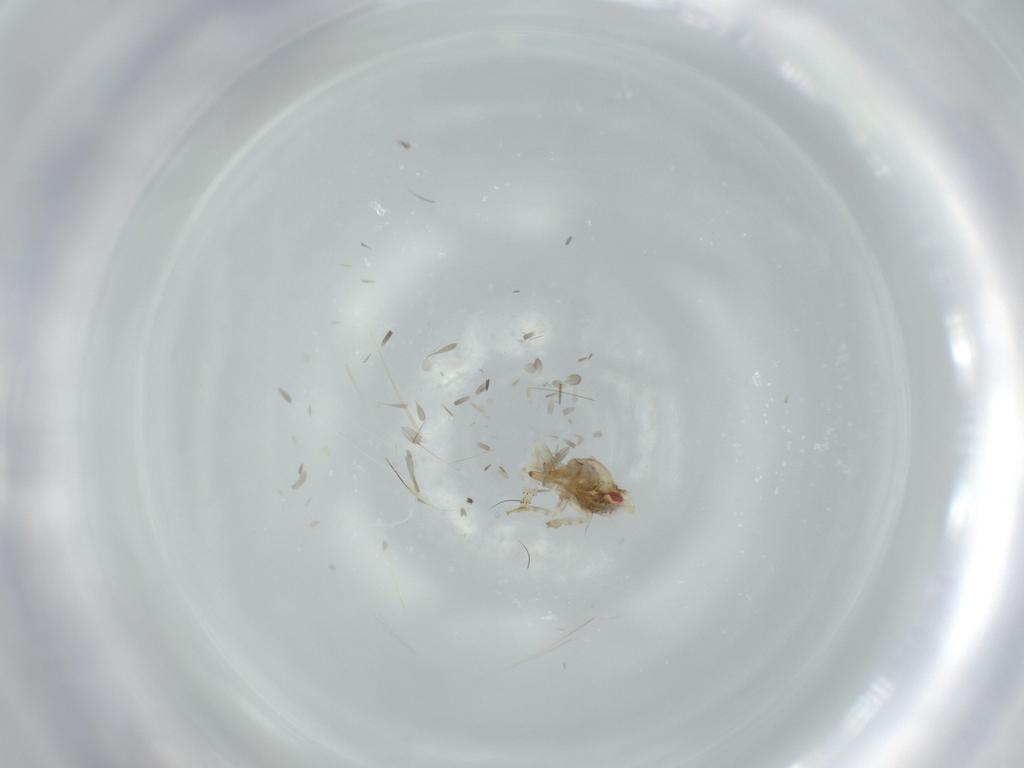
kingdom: Animalia
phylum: Arthropoda
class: Insecta
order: Hemiptera
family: Acanaloniidae
